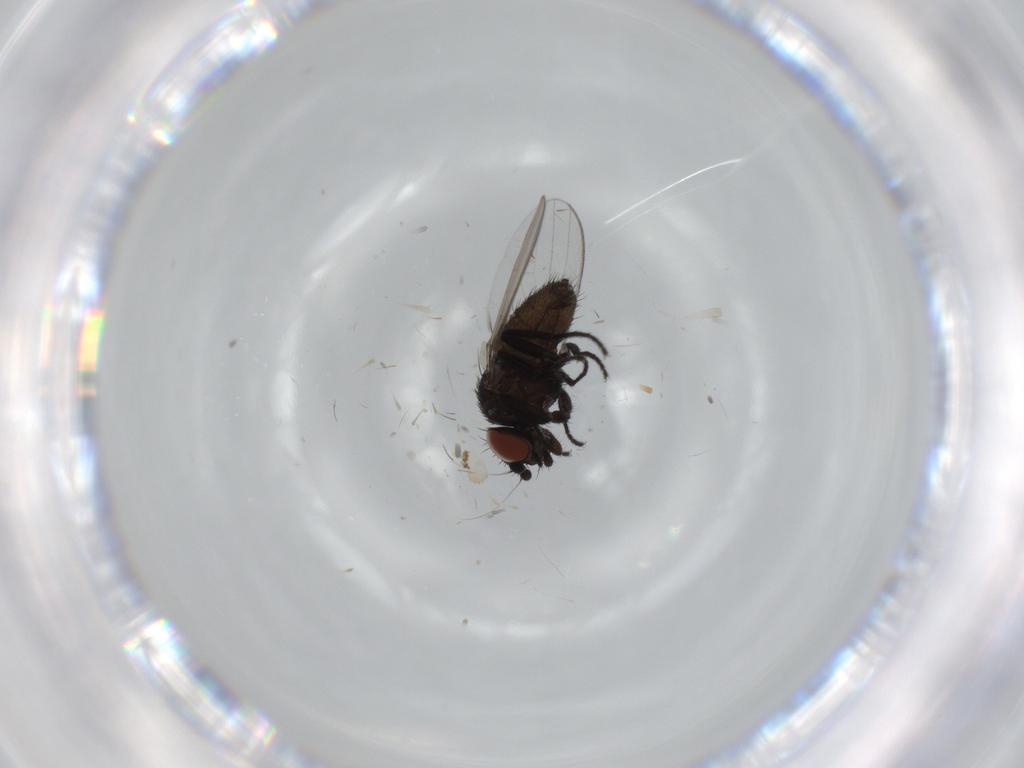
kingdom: Animalia
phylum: Arthropoda
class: Insecta
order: Diptera
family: Milichiidae
